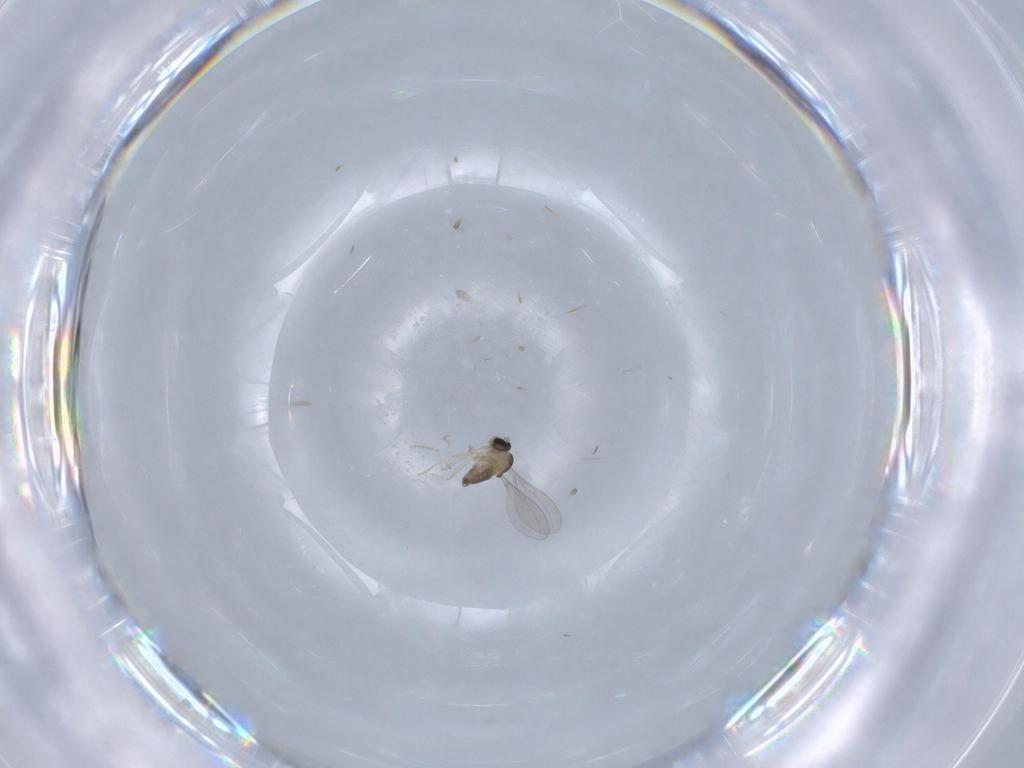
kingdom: Animalia
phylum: Arthropoda
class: Insecta
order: Diptera
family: Cecidomyiidae
